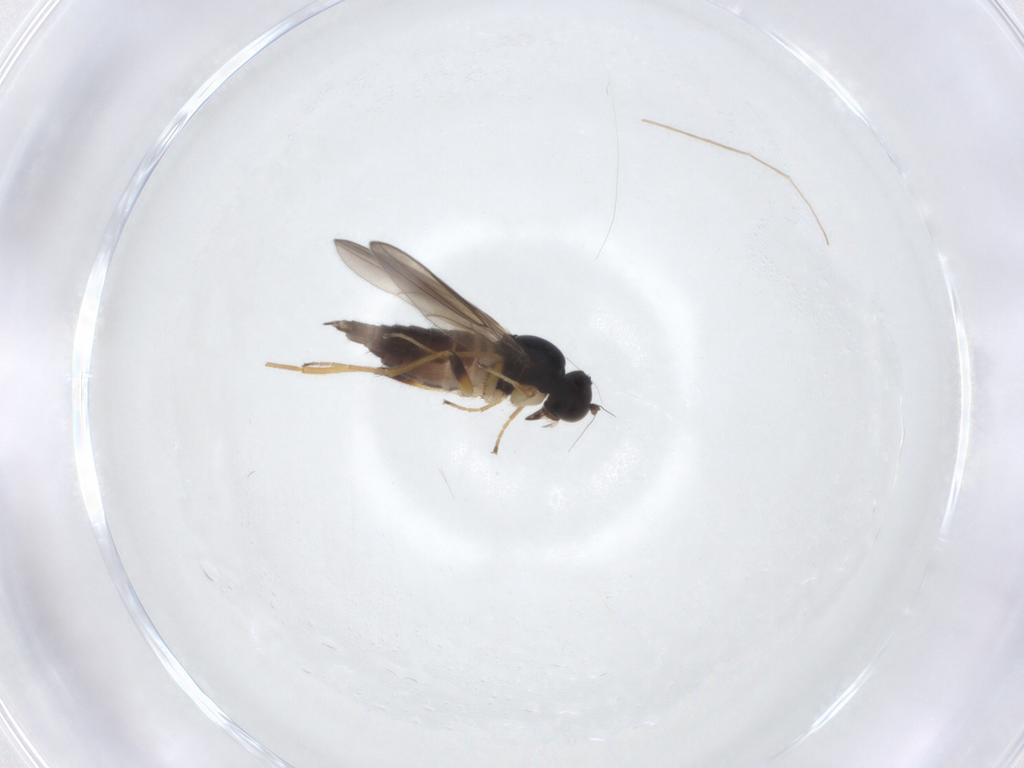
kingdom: Animalia
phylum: Arthropoda
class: Insecta
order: Diptera
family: Hybotidae
